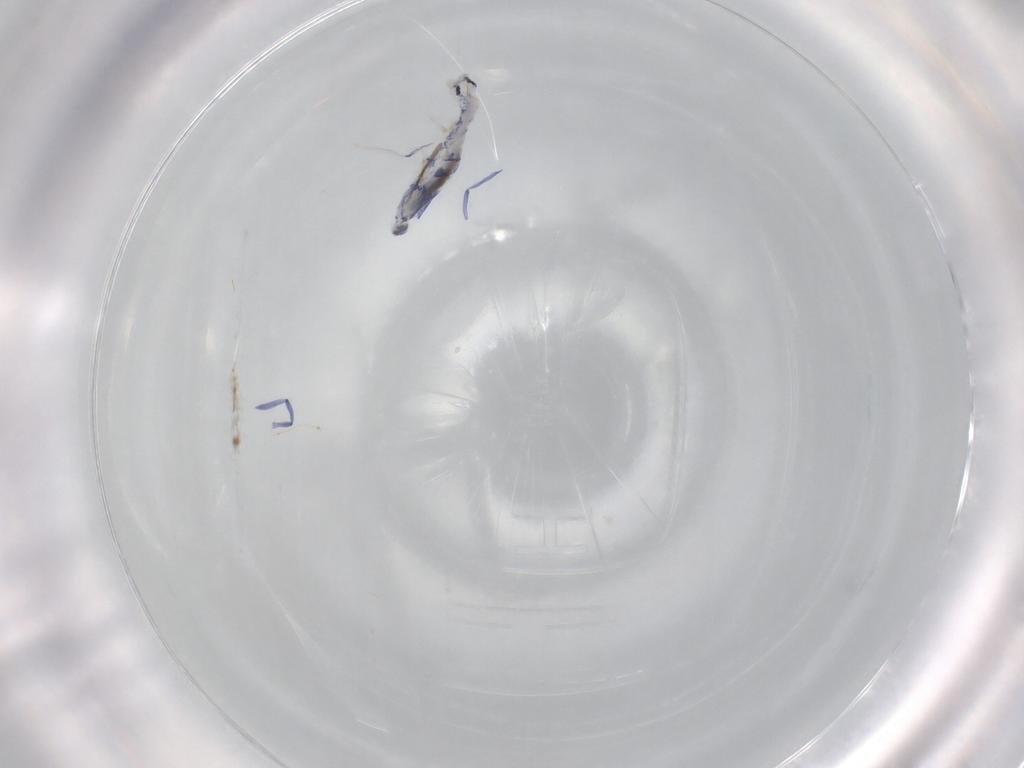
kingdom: Animalia
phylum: Arthropoda
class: Collembola
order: Entomobryomorpha
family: Entomobryidae
